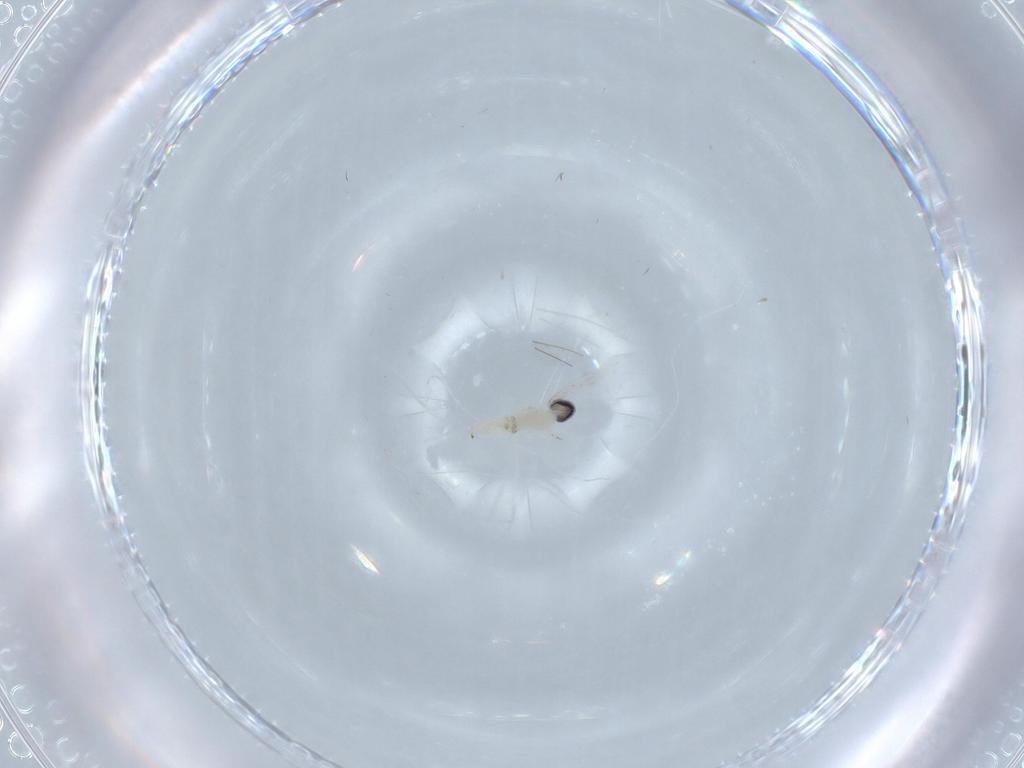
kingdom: Animalia
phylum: Arthropoda
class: Insecta
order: Diptera
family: Cecidomyiidae
